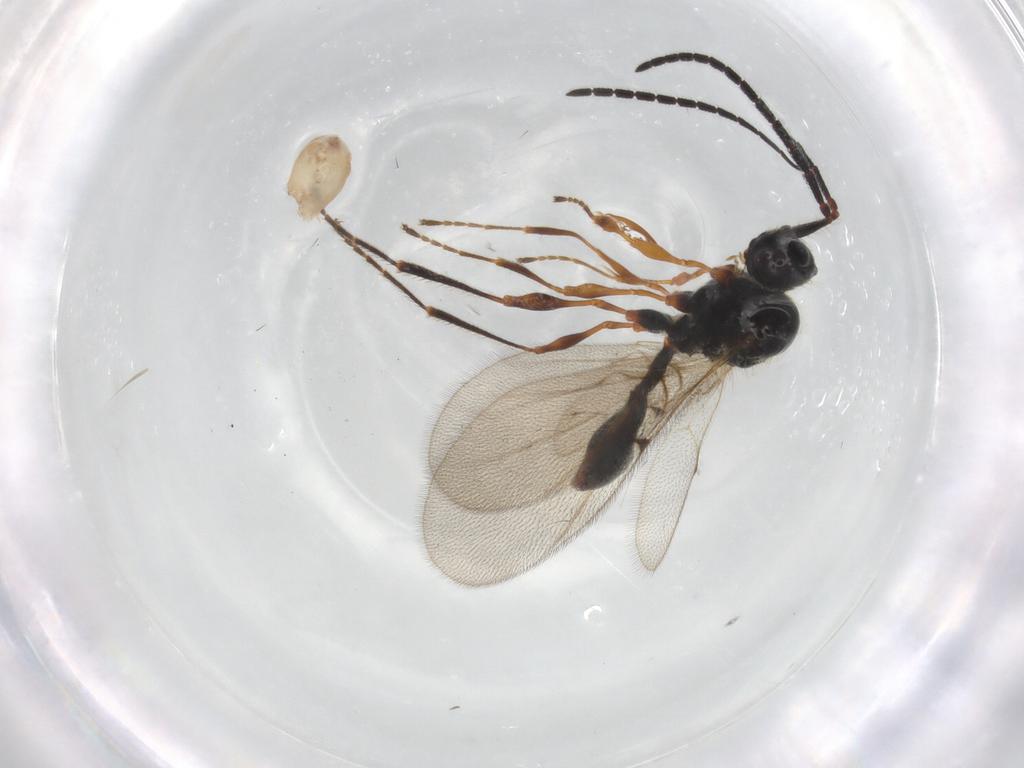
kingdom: Animalia
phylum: Arthropoda
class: Insecta
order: Hymenoptera
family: Diapriidae
